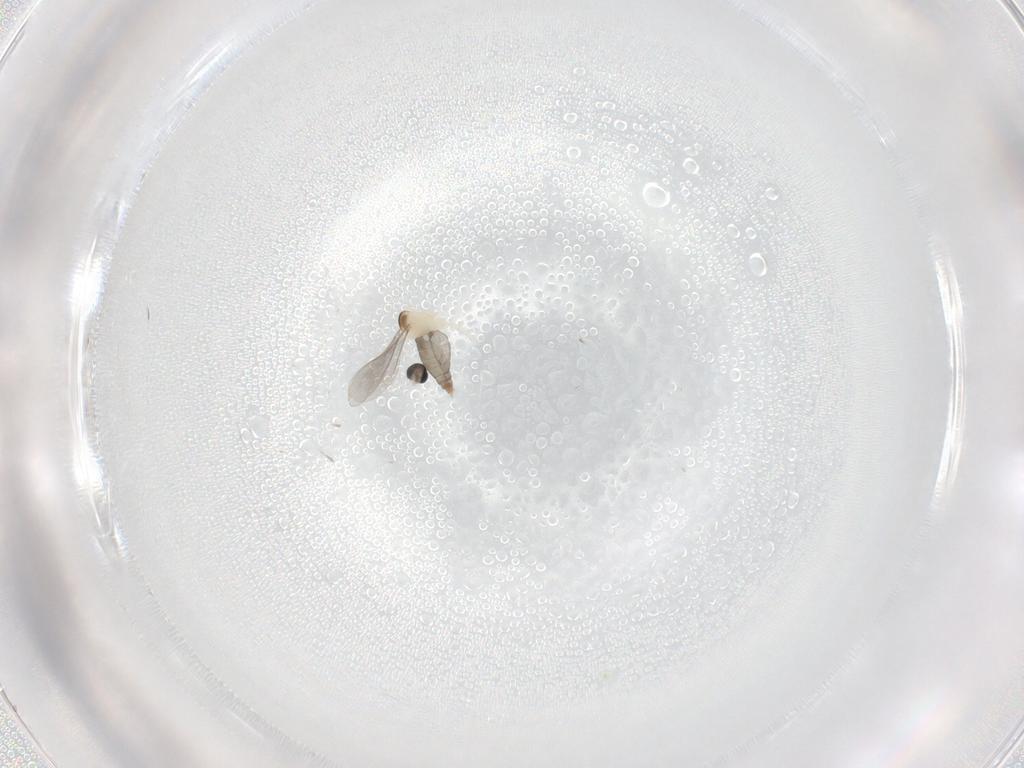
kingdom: Animalia
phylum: Arthropoda
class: Insecta
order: Diptera
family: Cecidomyiidae
